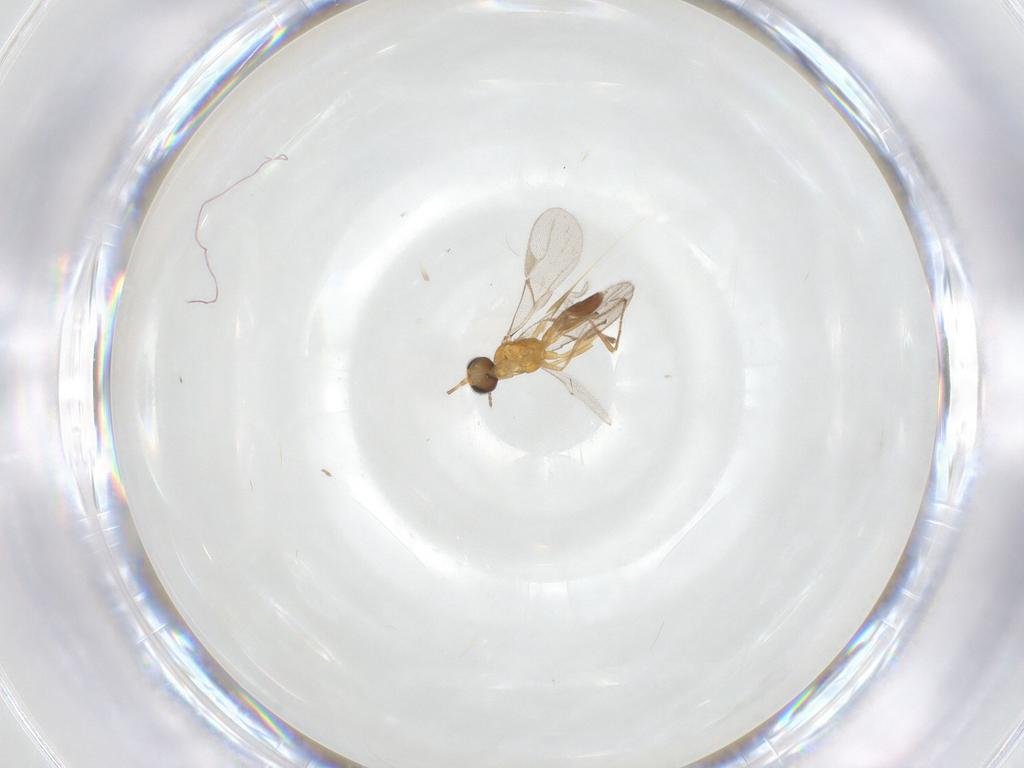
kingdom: Animalia
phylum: Arthropoda
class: Insecta
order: Hymenoptera
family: Braconidae
